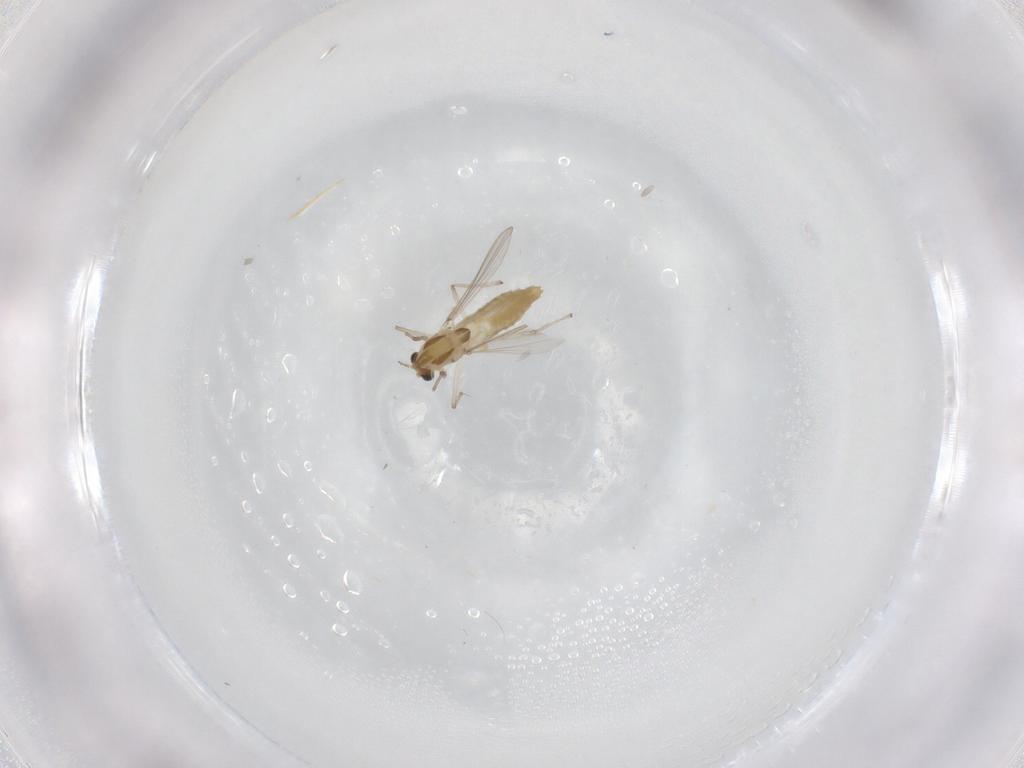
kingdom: Animalia
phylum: Arthropoda
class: Insecta
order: Diptera
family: Chironomidae
